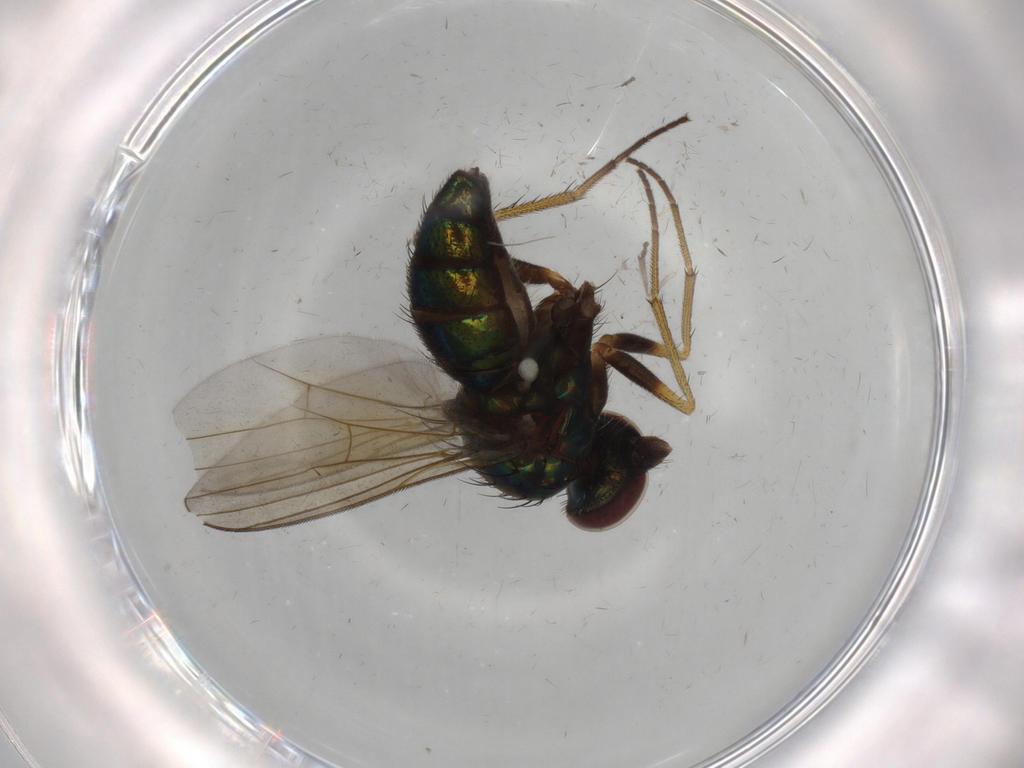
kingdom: Animalia
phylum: Arthropoda
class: Insecta
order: Diptera
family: Dolichopodidae
